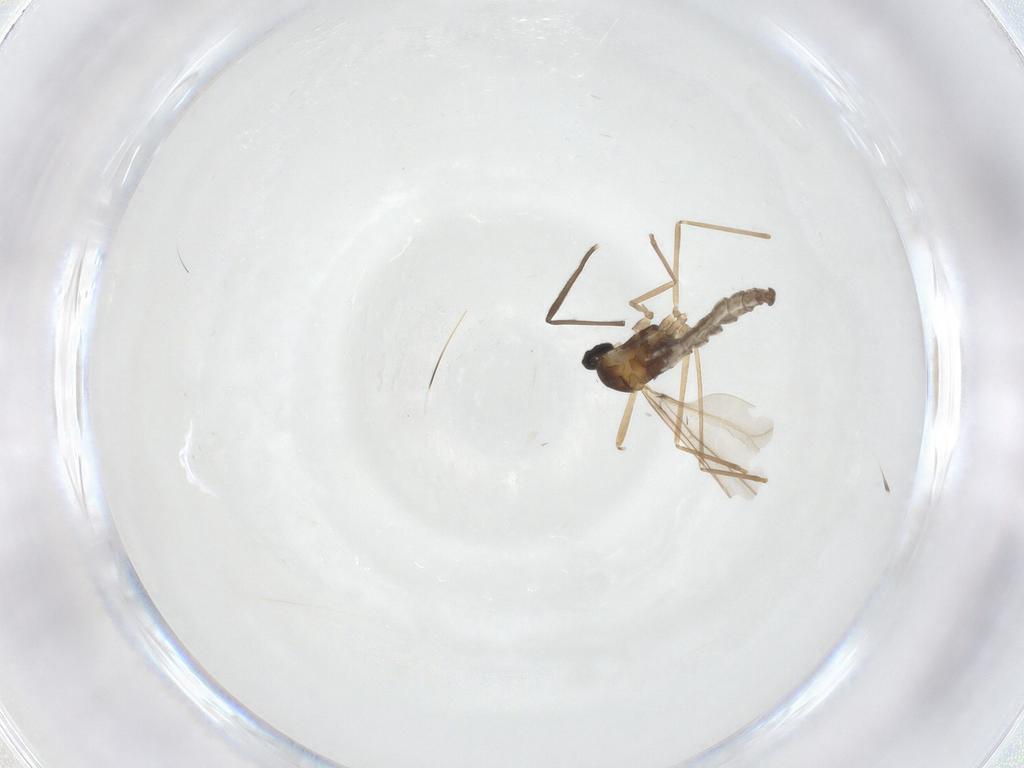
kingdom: Animalia
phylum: Arthropoda
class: Insecta
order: Diptera
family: Cecidomyiidae
